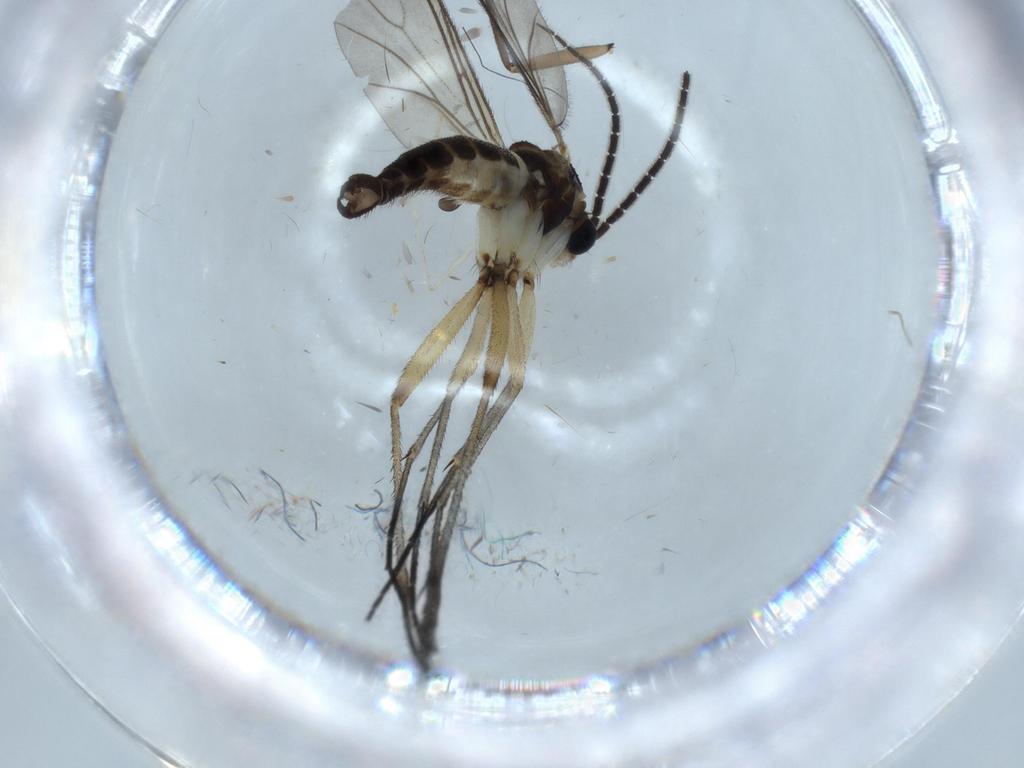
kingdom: Animalia
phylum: Arthropoda
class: Insecta
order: Diptera
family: Sciaridae
